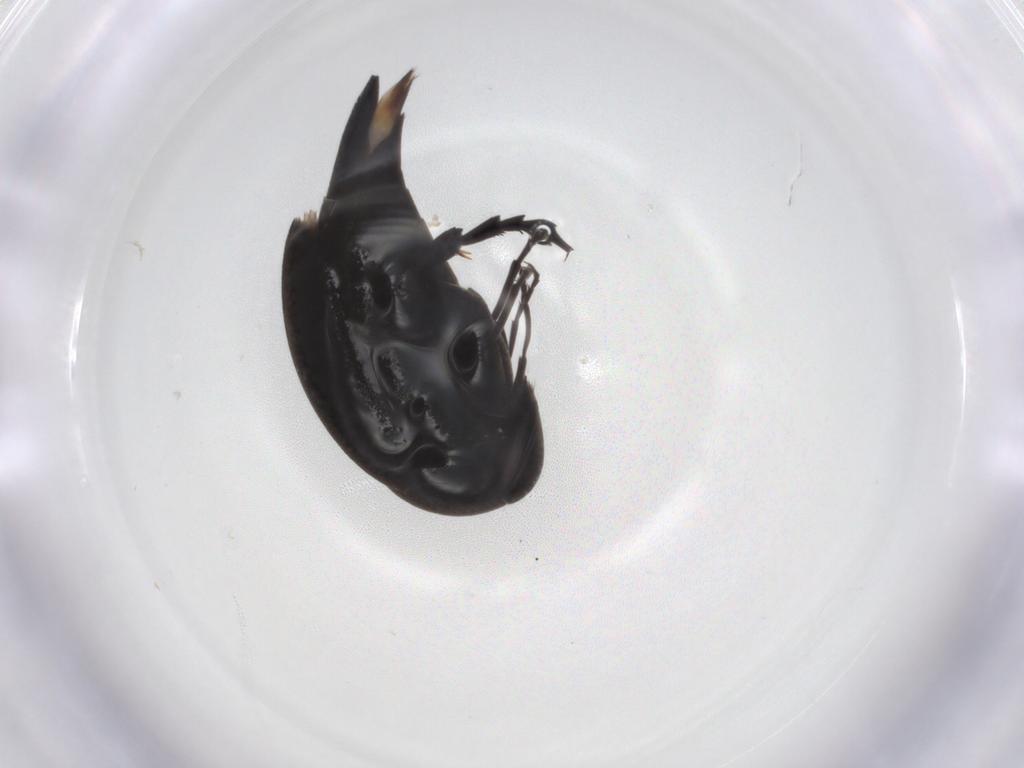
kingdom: Animalia
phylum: Arthropoda
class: Insecta
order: Coleoptera
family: Mordellidae
